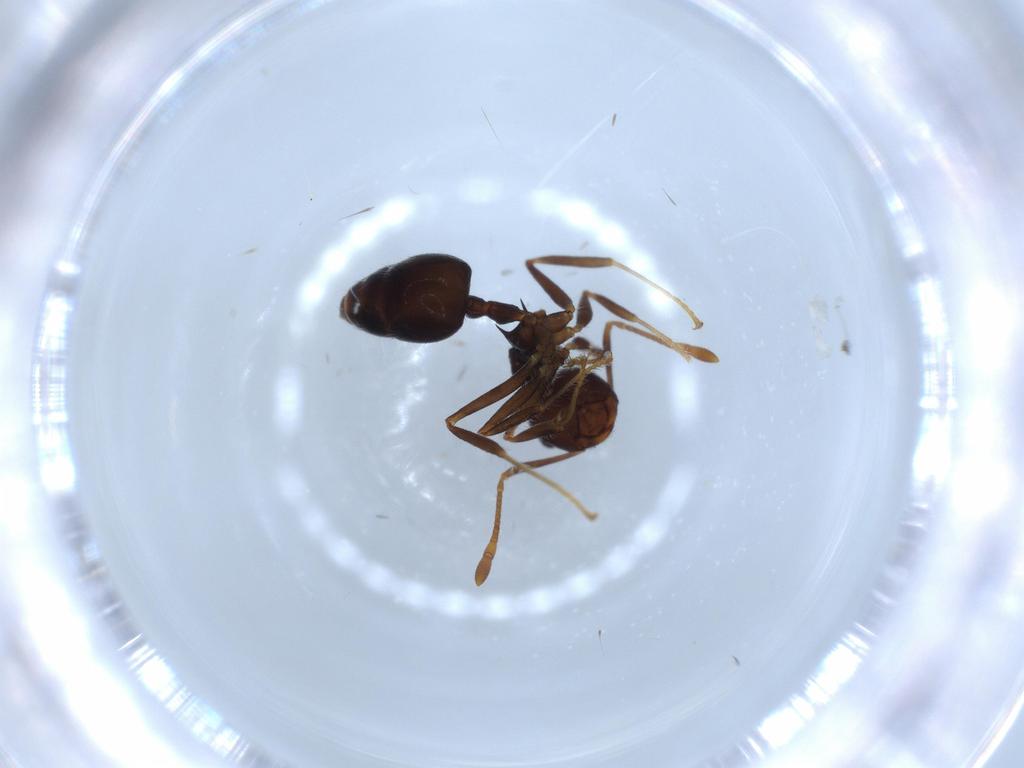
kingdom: Animalia
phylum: Arthropoda
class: Insecta
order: Hymenoptera
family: Formicidae
